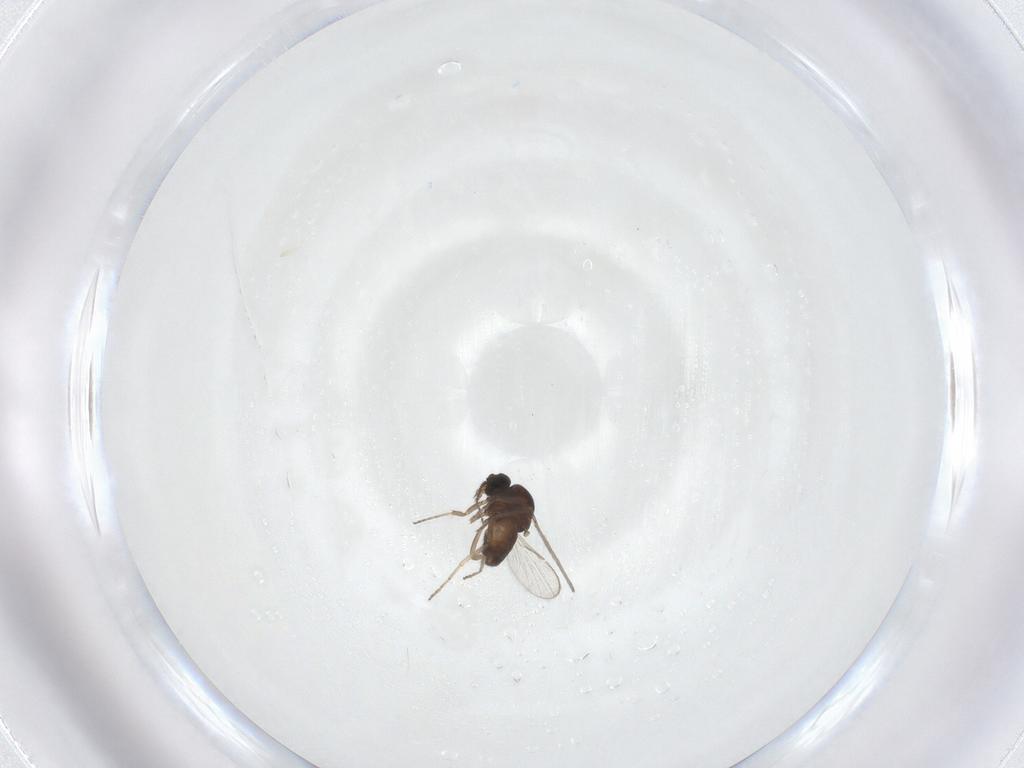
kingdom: Animalia
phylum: Arthropoda
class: Insecta
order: Diptera
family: Ceratopogonidae
